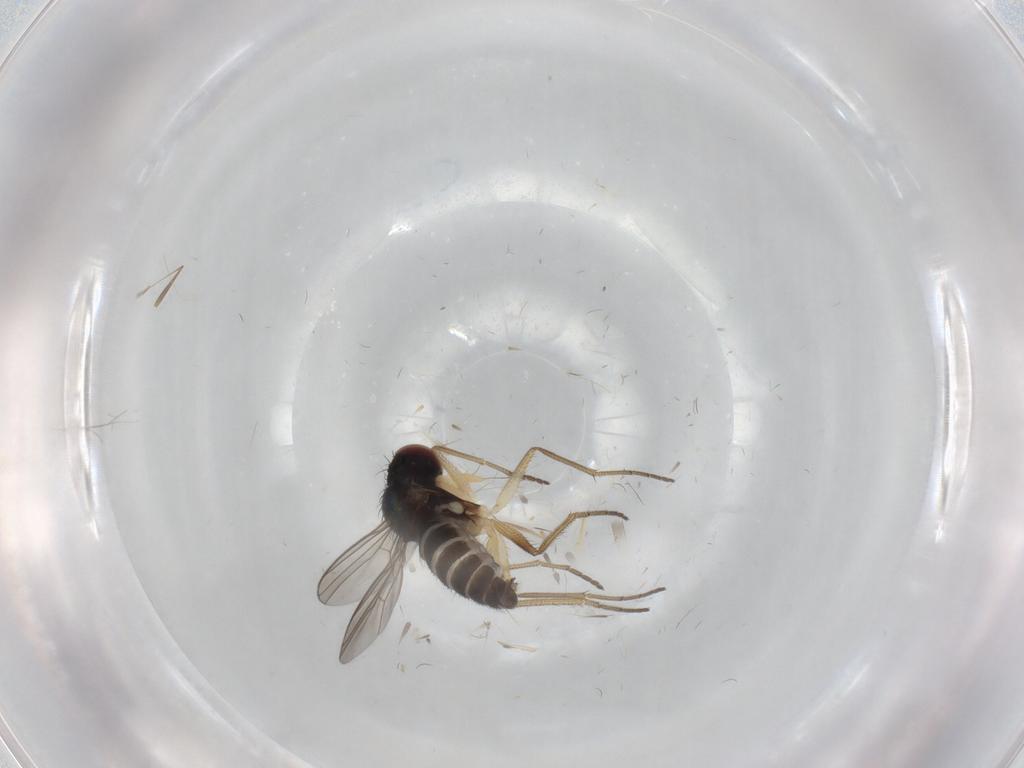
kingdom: Animalia
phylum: Arthropoda
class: Insecta
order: Diptera
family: Dolichopodidae
